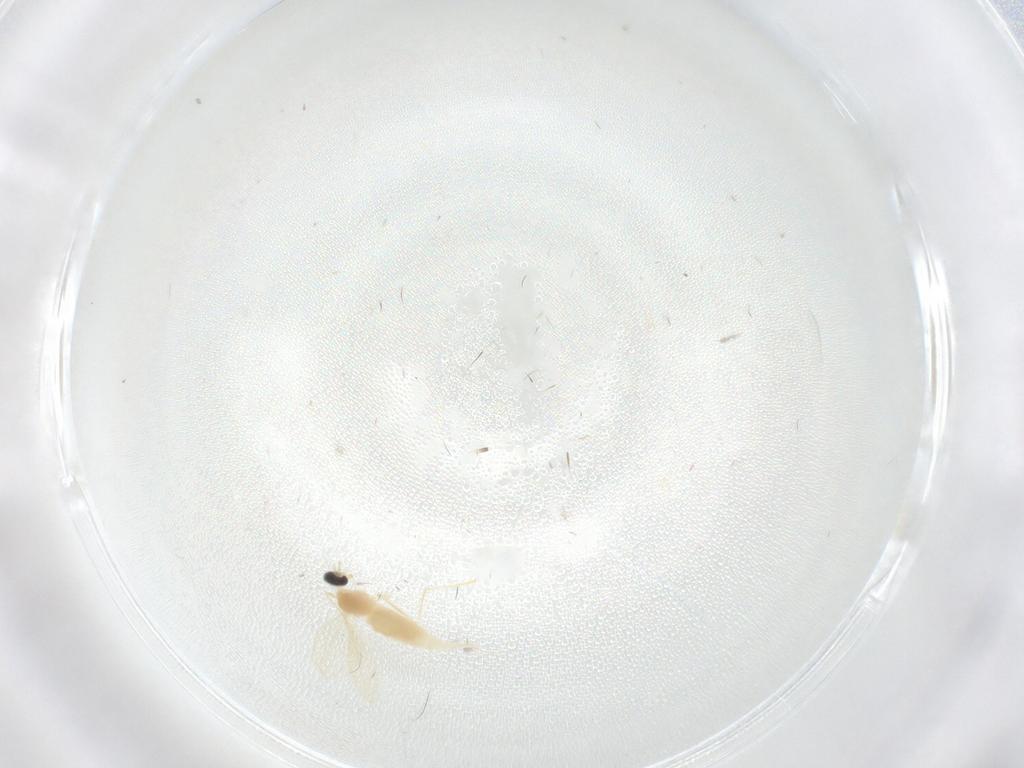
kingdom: Animalia
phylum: Arthropoda
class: Insecta
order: Diptera
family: Cecidomyiidae
